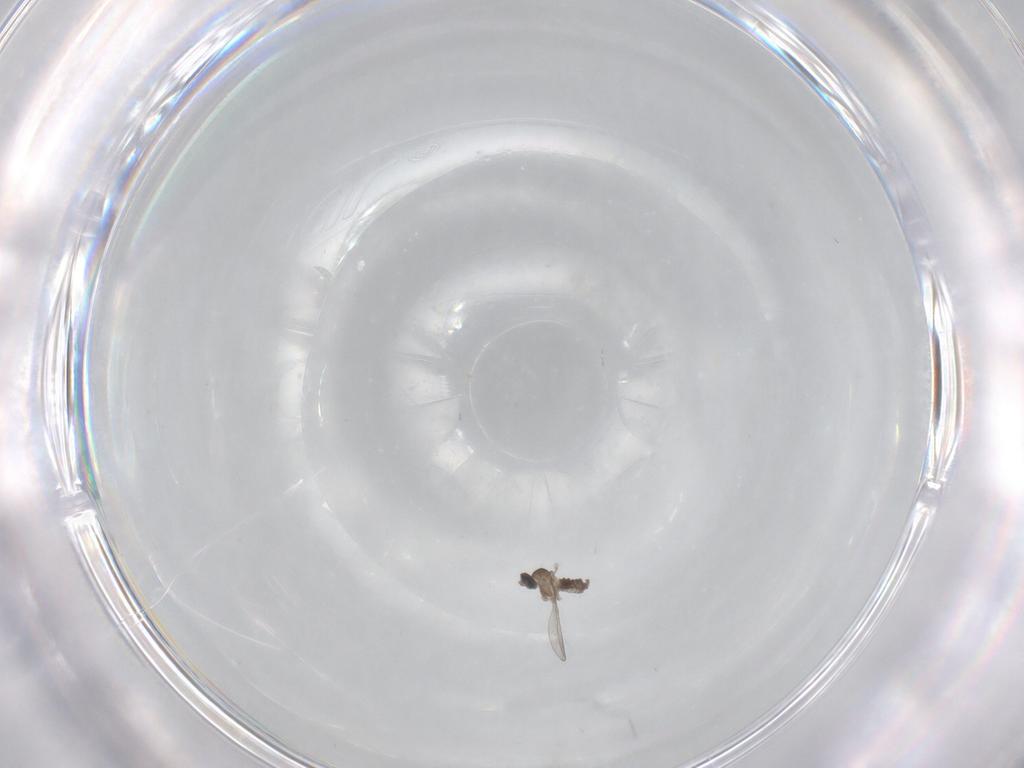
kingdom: Animalia
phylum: Arthropoda
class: Insecta
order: Diptera
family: Cecidomyiidae
